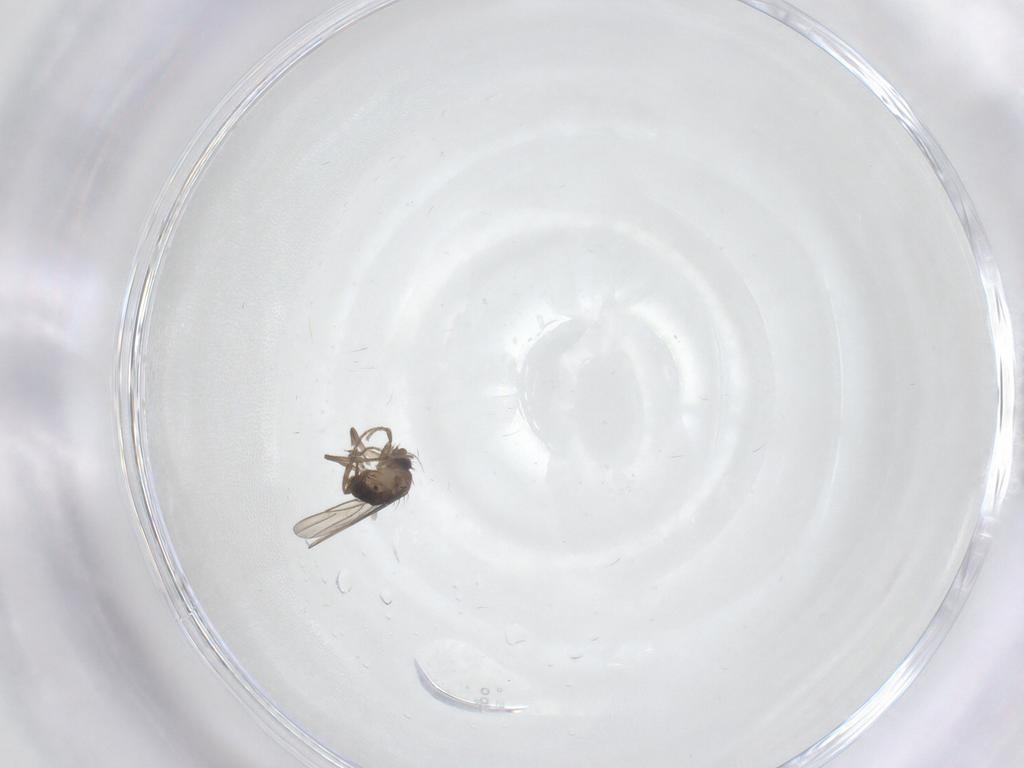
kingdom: Animalia
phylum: Arthropoda
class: Insecta
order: Diptera
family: Phoridae
